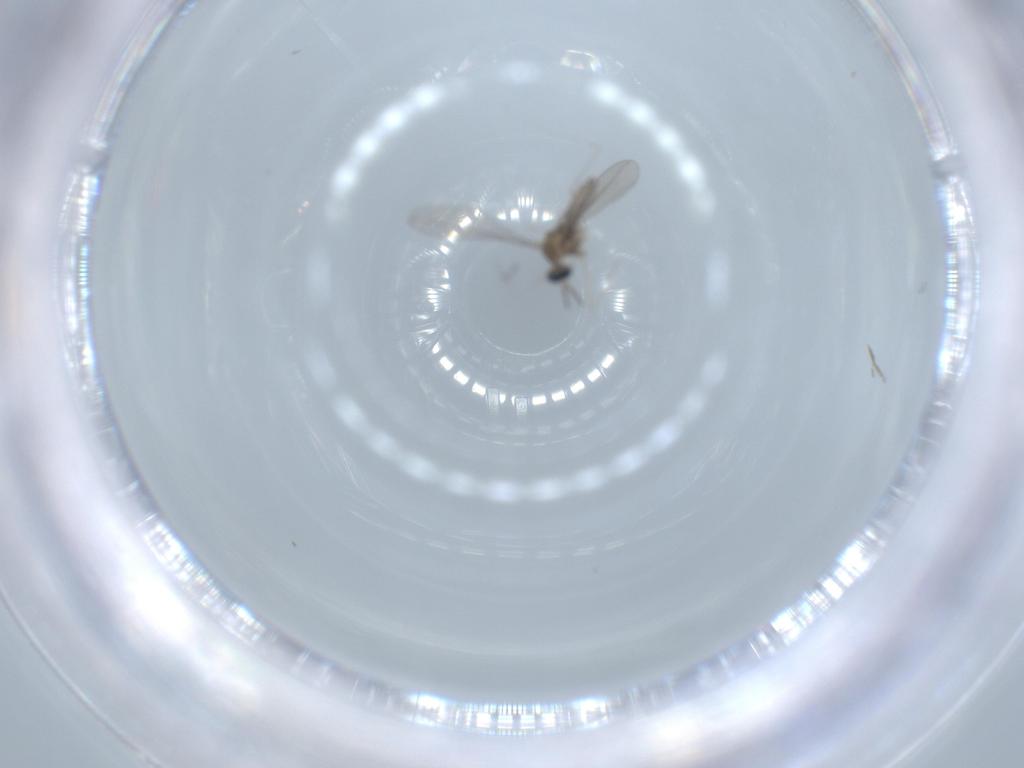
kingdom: Animalia
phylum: Arthropoda
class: Insecta
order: Diptera
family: Cecidomyiidae
